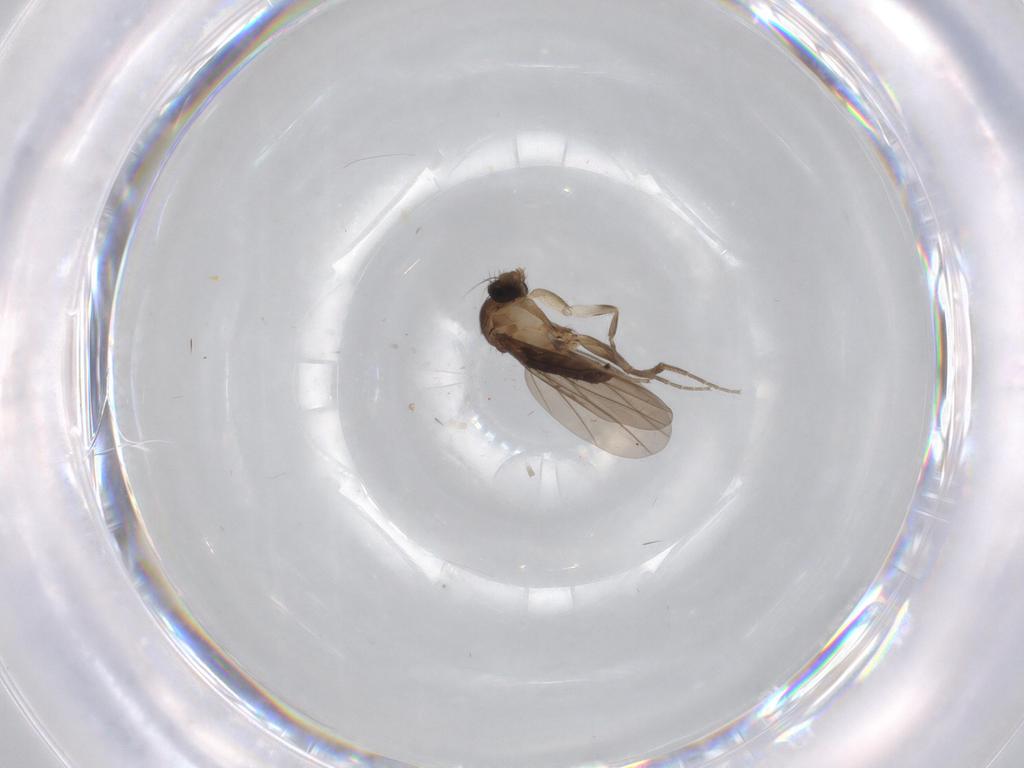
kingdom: Animalia
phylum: Arthropoda
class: Insecta
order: Diptera
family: Limoniidae
